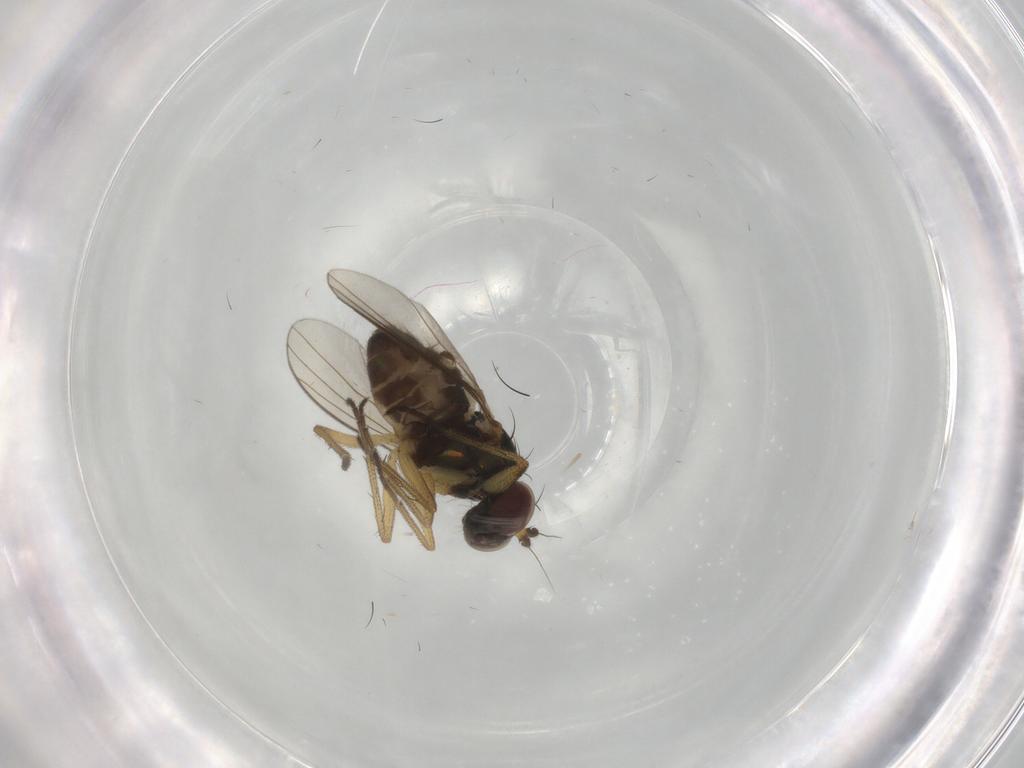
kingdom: Animalia
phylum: Arthropoda
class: Insecta
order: Diptera
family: Dolichopodidae
